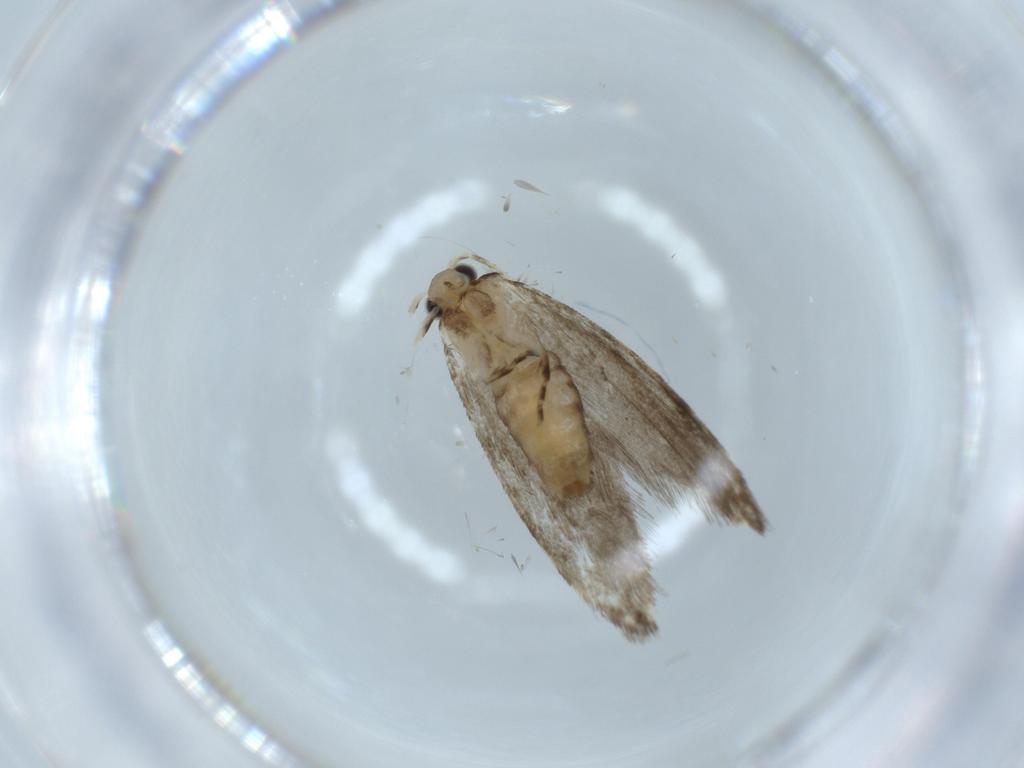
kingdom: Animalia
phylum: Arthropoda
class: Insecta
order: Lepidoptera
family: Tineidae
